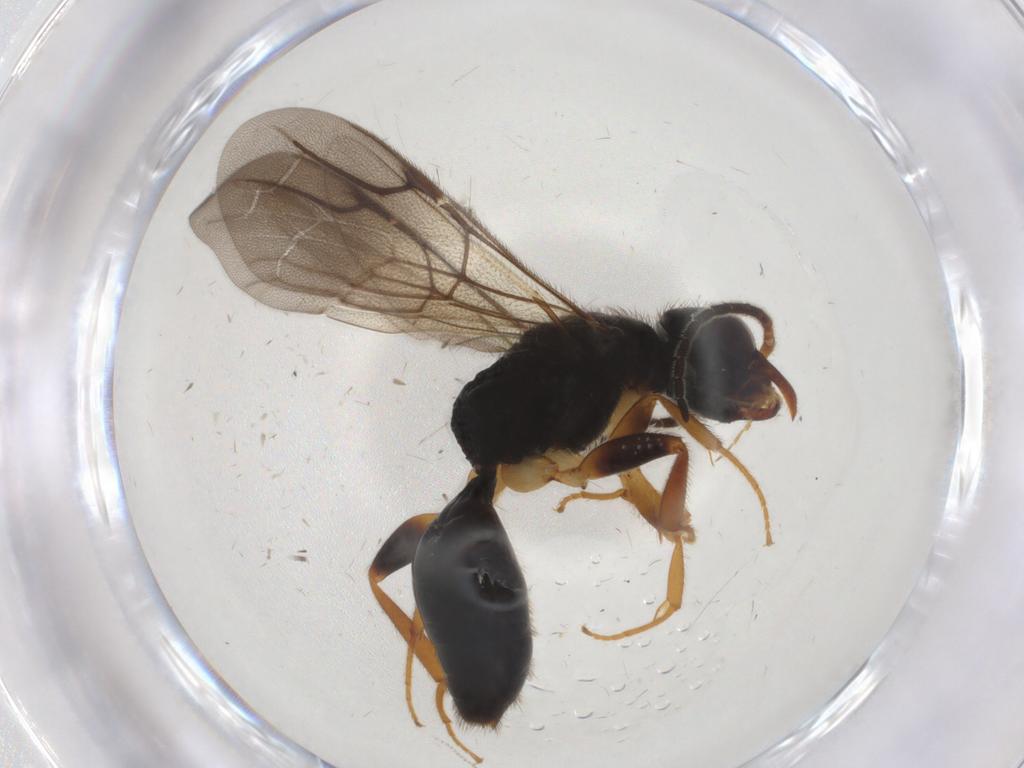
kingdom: Animalia
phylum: Arthropoda
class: Insecta
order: Hymenoptera
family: Bethylidae
